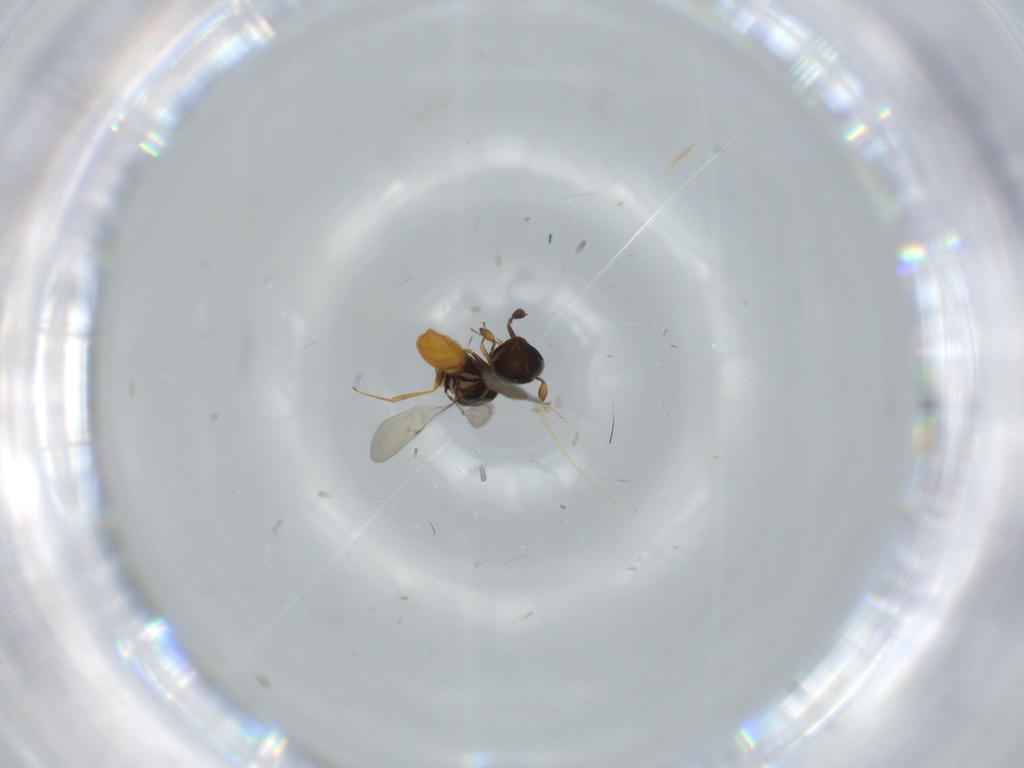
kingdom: Animalia
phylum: Arthropoda
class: Insecta
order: Hymenoptera
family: Scelionidae
